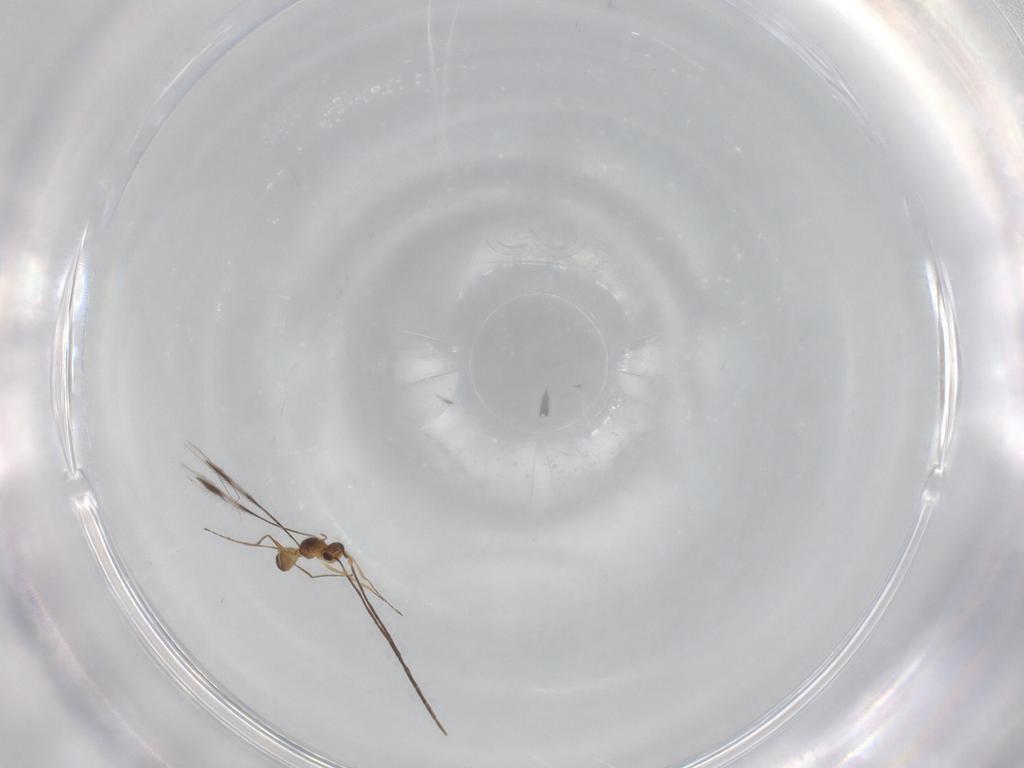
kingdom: Animalia
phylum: Arthropoda
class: Insecta
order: Hymenoptera
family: Mymaridae
